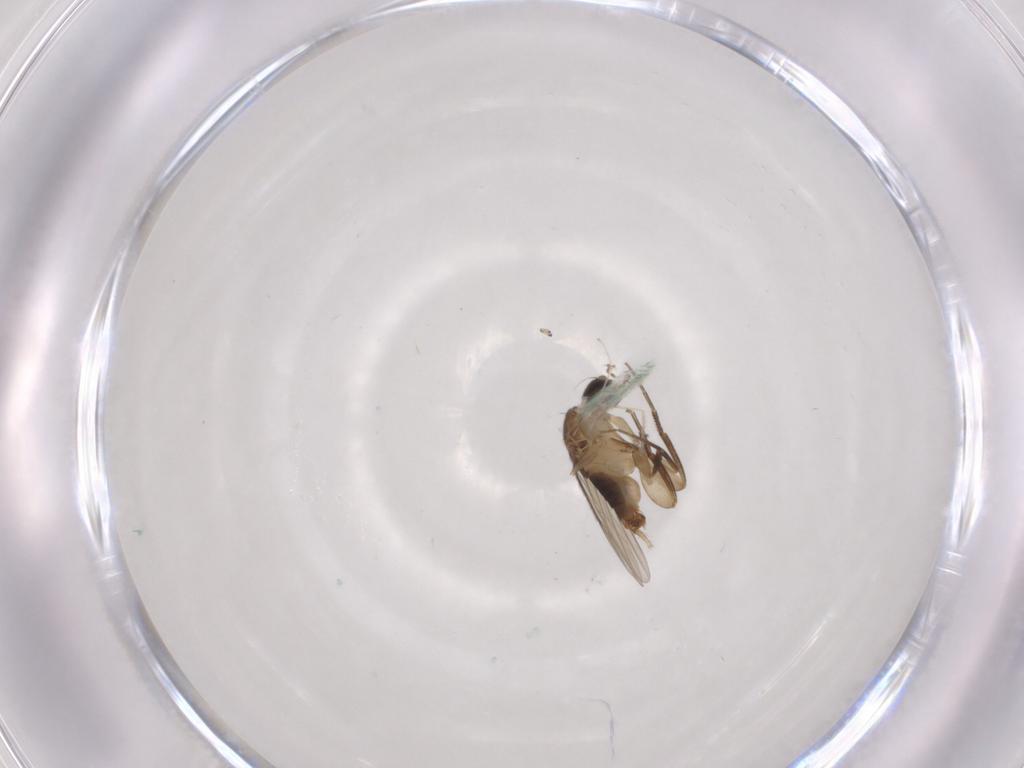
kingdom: Animalia
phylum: Arthropoda
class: Insecta
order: Diptera
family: Phoridae
